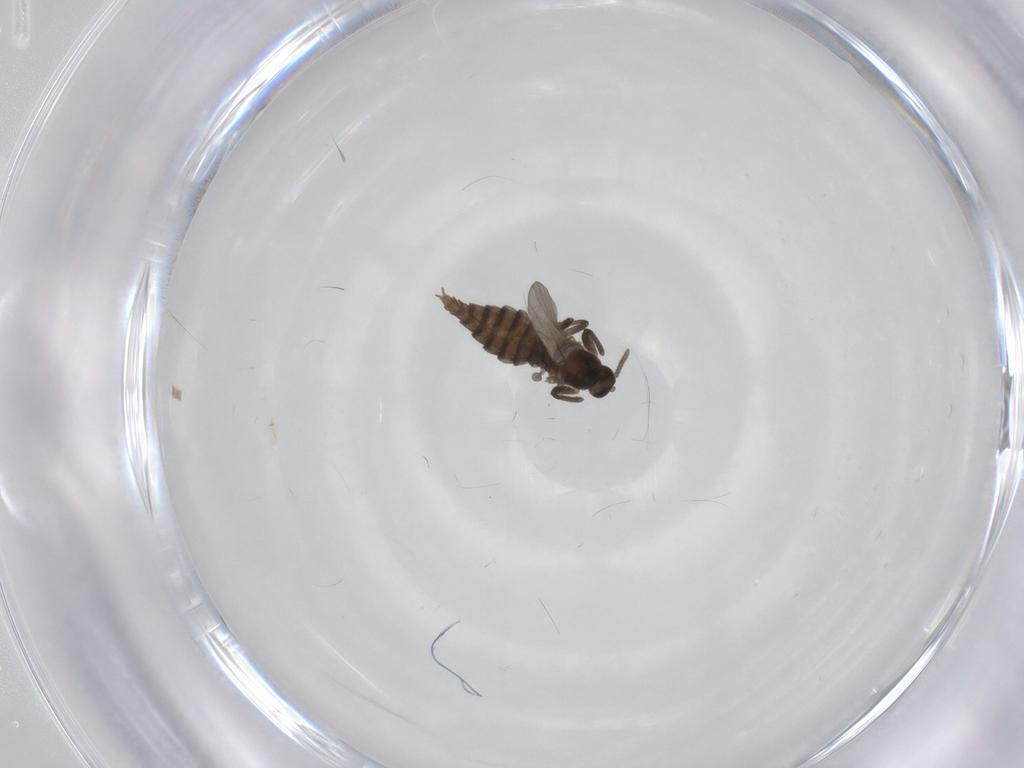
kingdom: Animalia
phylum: Arthropoda
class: Insecta
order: Diptera
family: Cecidomyiidae
